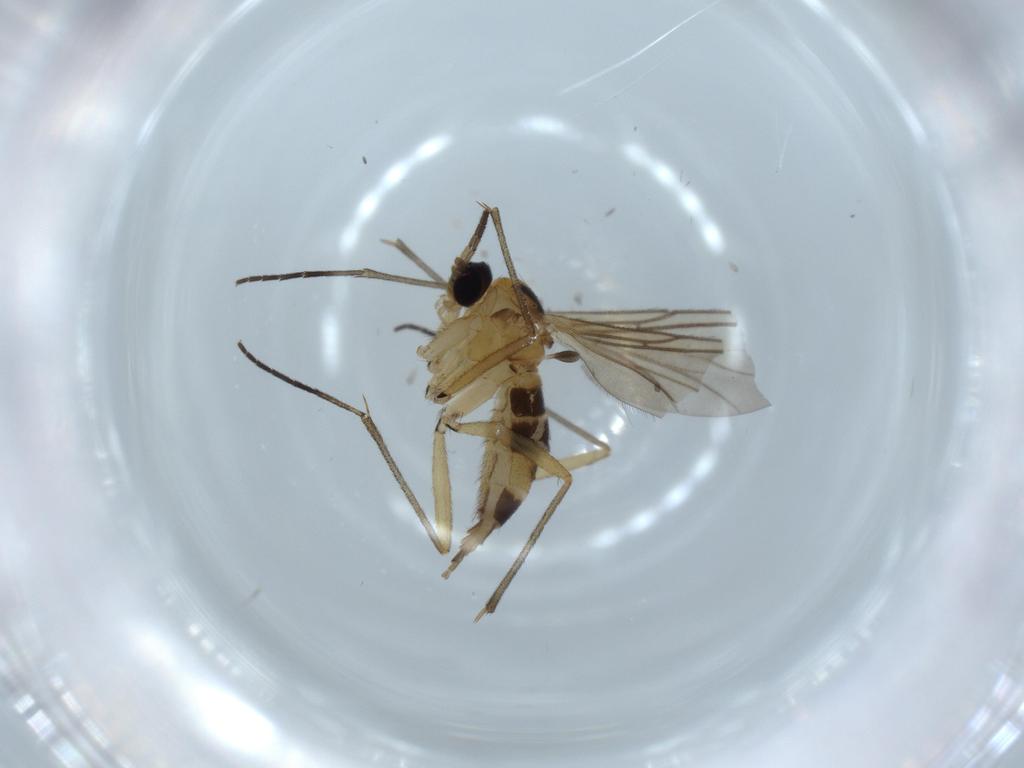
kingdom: Animalia
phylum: Arthropoda
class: Insecta
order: Diptera
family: Sciaridae
